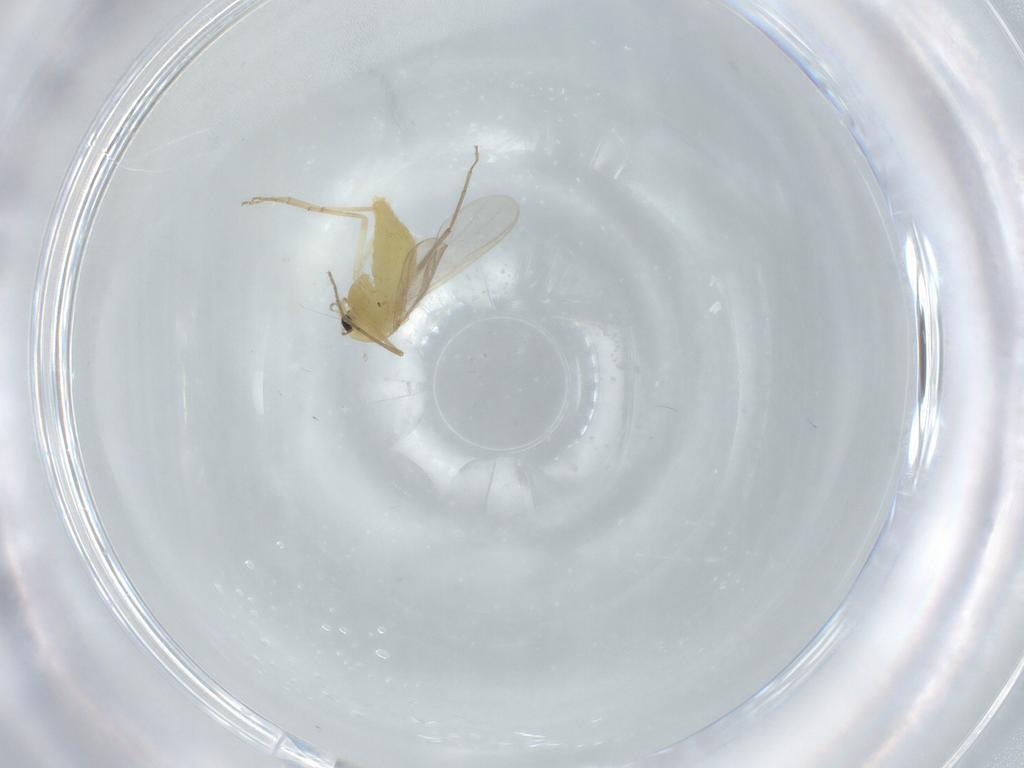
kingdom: Animalia
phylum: Arthropoda
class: Insecta
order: Diptera
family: Chironomidae
